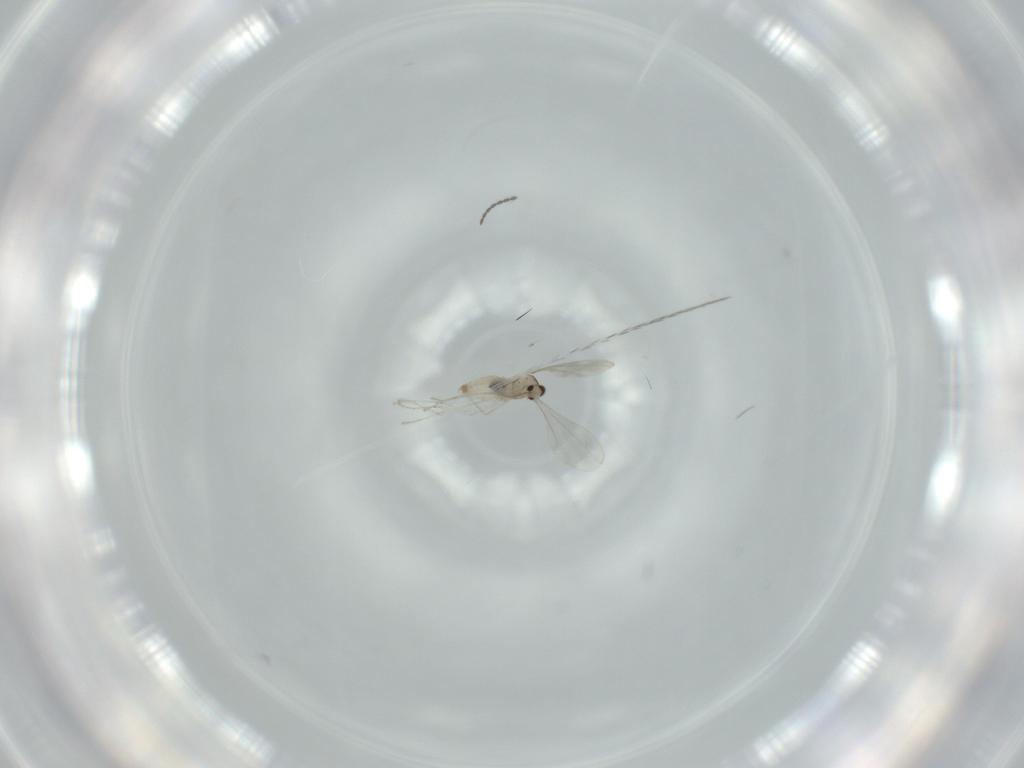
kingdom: Animalia
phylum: Arthropoda
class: Insecta
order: Diptera
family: Cecidomyiidae
